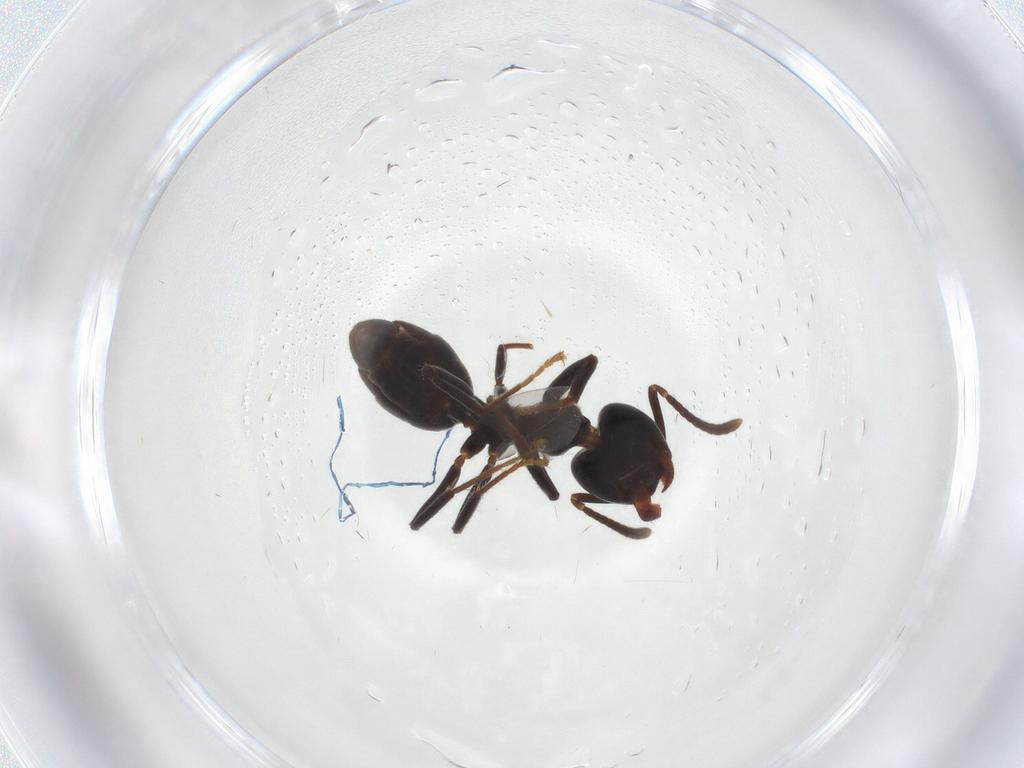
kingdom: Animalia
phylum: Arthropoda
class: Insecta
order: Hymenoptera
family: Formicidae
